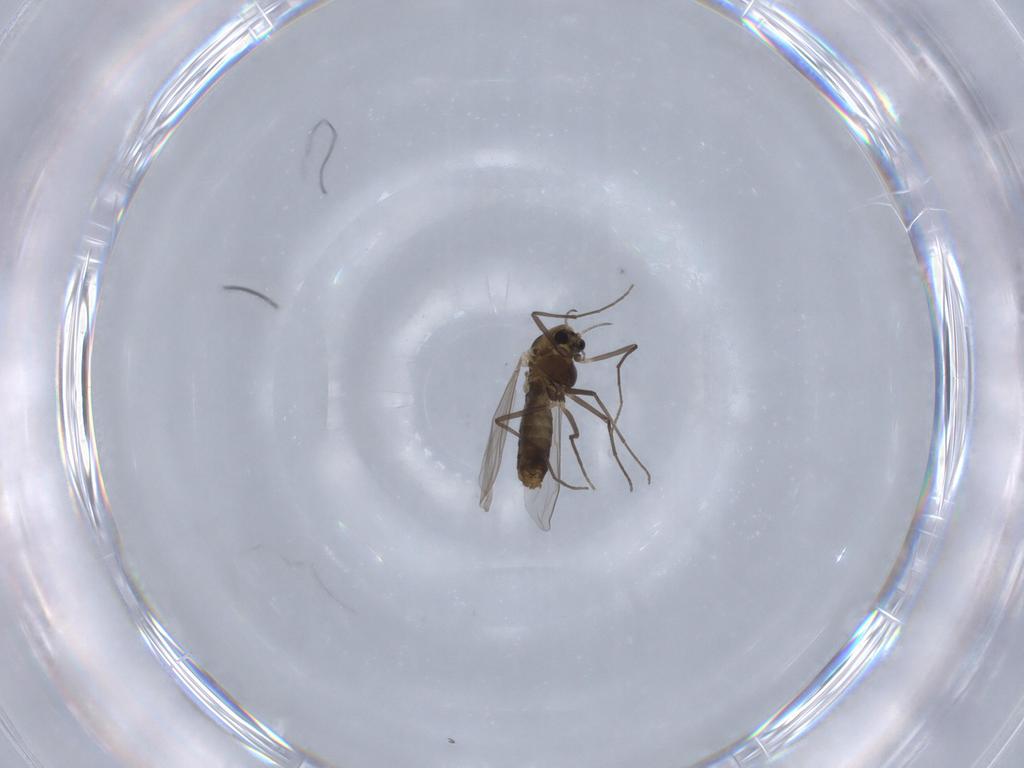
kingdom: Animalia
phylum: Arthropoda
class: Insecta
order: Diptera
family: Chironomidae
